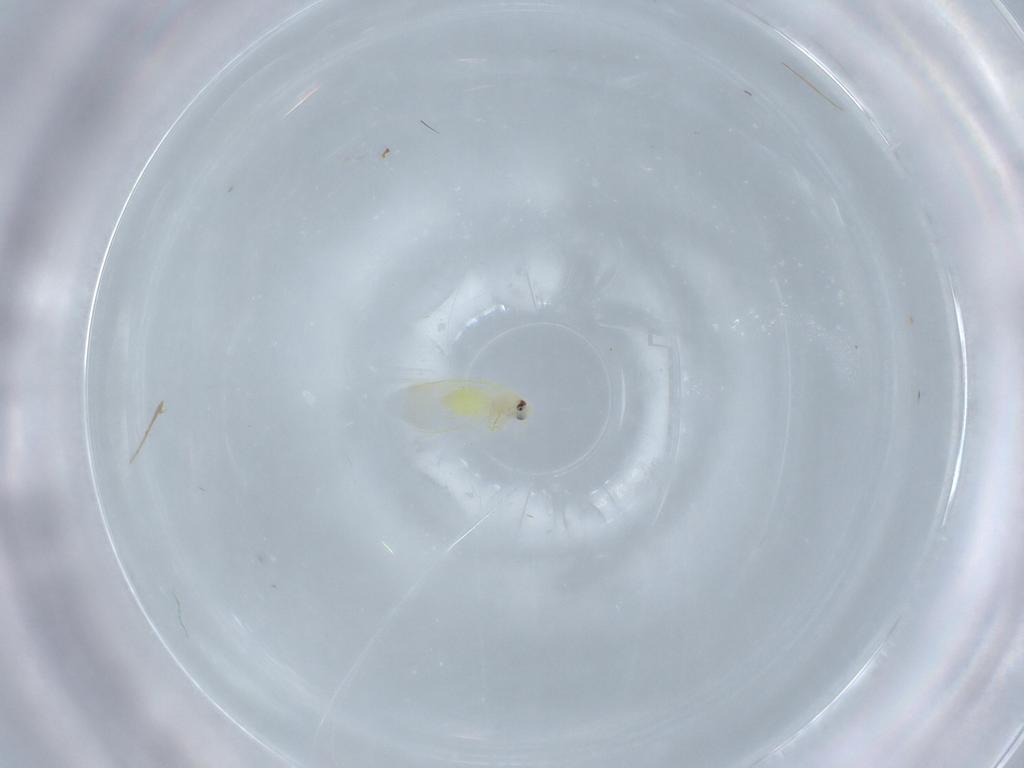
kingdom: Animalia
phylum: Arthropoda
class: Insecta
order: Hemiptera
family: Aleyrodidae
